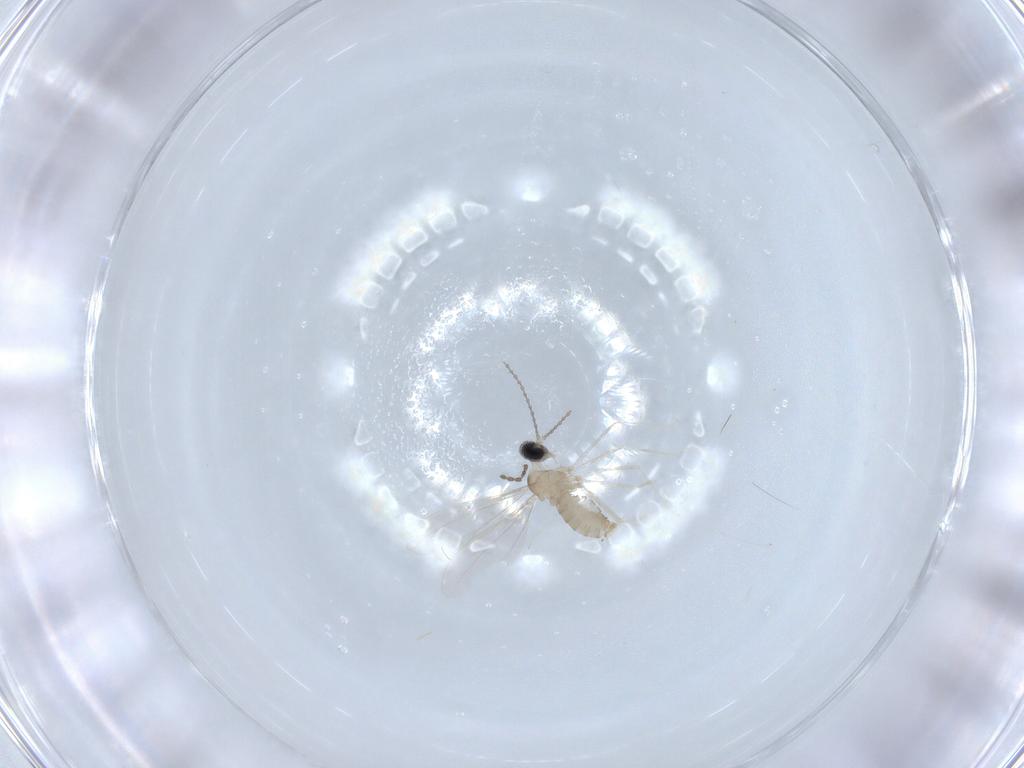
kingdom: Animalia
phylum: Arthropoda
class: Insecta
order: Diptera
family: Cecidomyiidae
